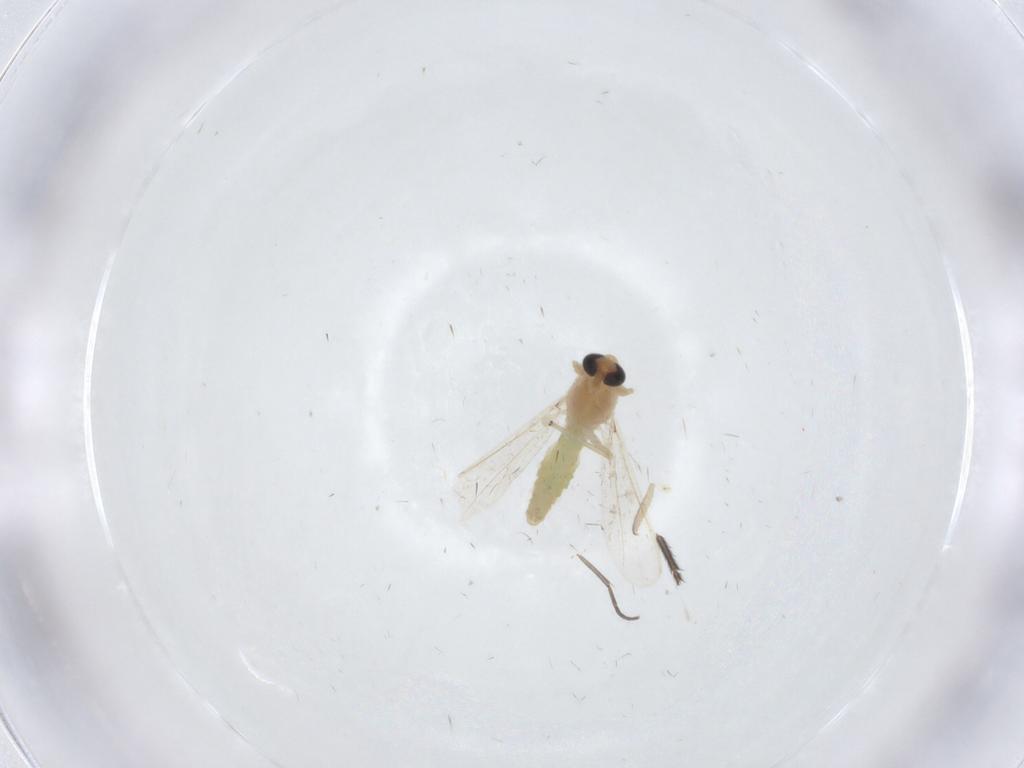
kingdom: Animalia
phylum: Arthropoda
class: Insecta
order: Diptera
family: Chironomidae
